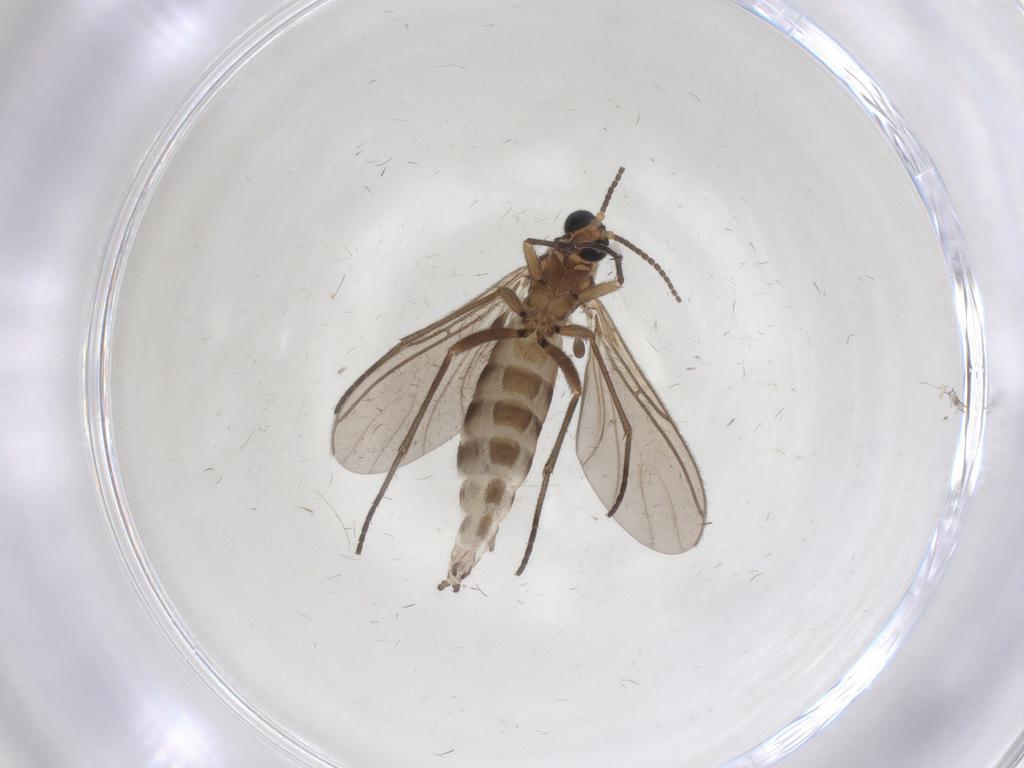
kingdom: Animalia
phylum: Arthropoda
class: Insecta
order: Diptera
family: Sciaridae
